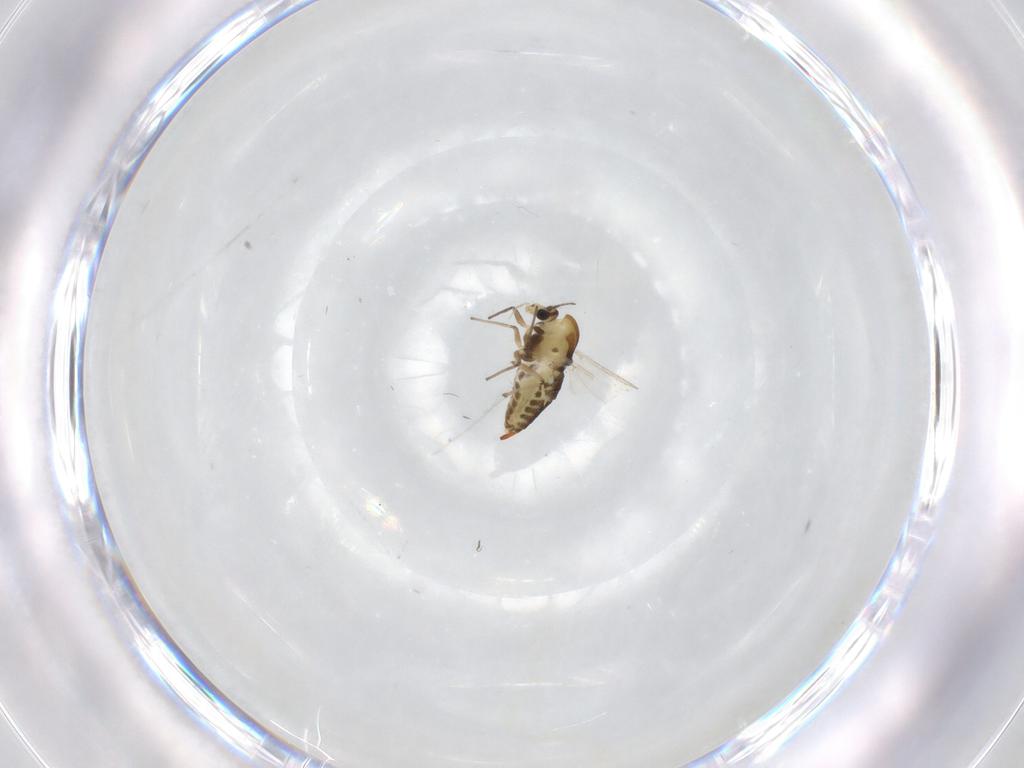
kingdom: Animalia
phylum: Arthropoda
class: Insecta
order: Diptera
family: Chironomidae
